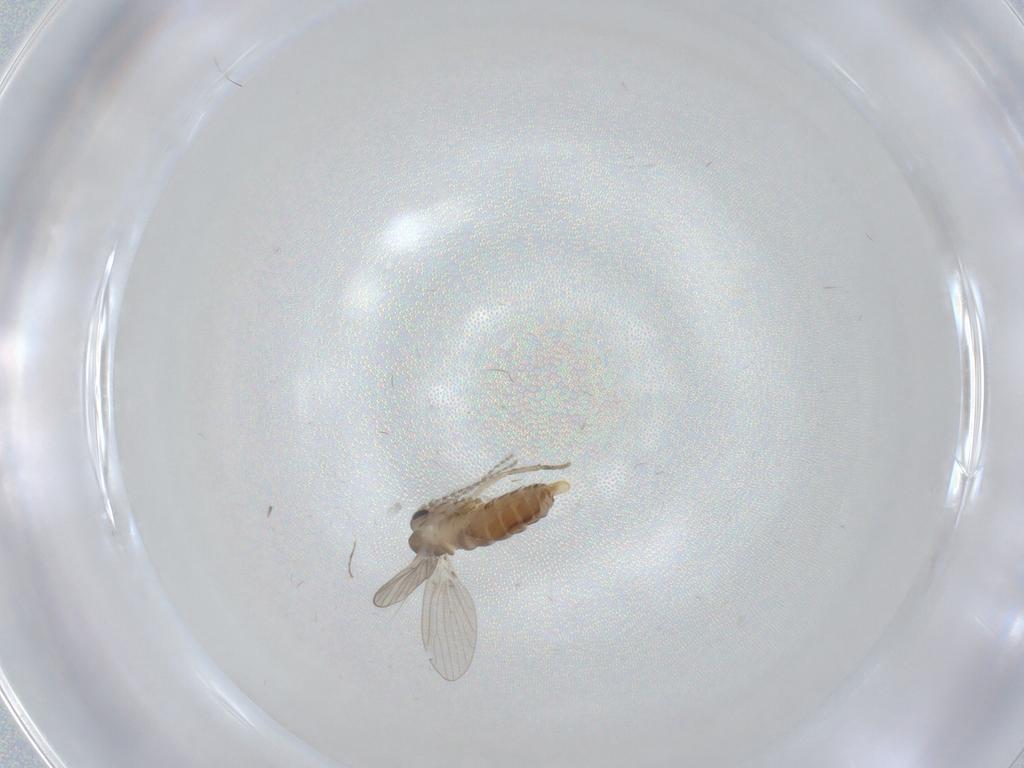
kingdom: Animalia
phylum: Arthropoda
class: Insecta
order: Diptera
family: Psychodidae
